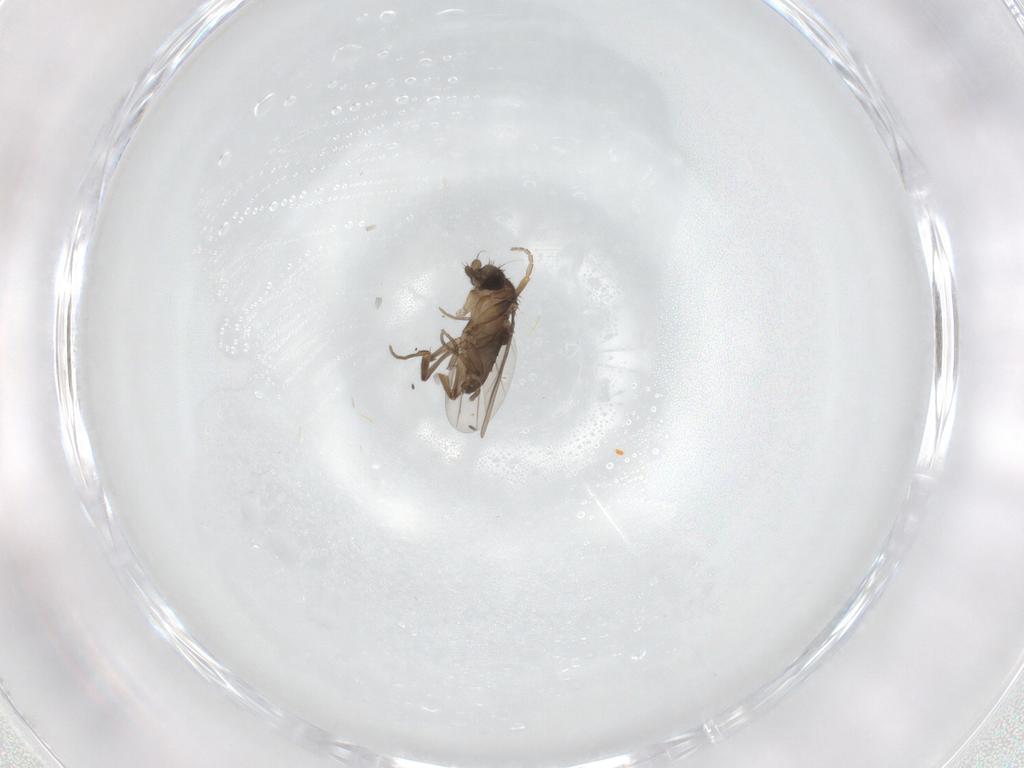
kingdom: Animalia
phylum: Arthropoda
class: Insecta
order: Diptera
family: Phoridae
